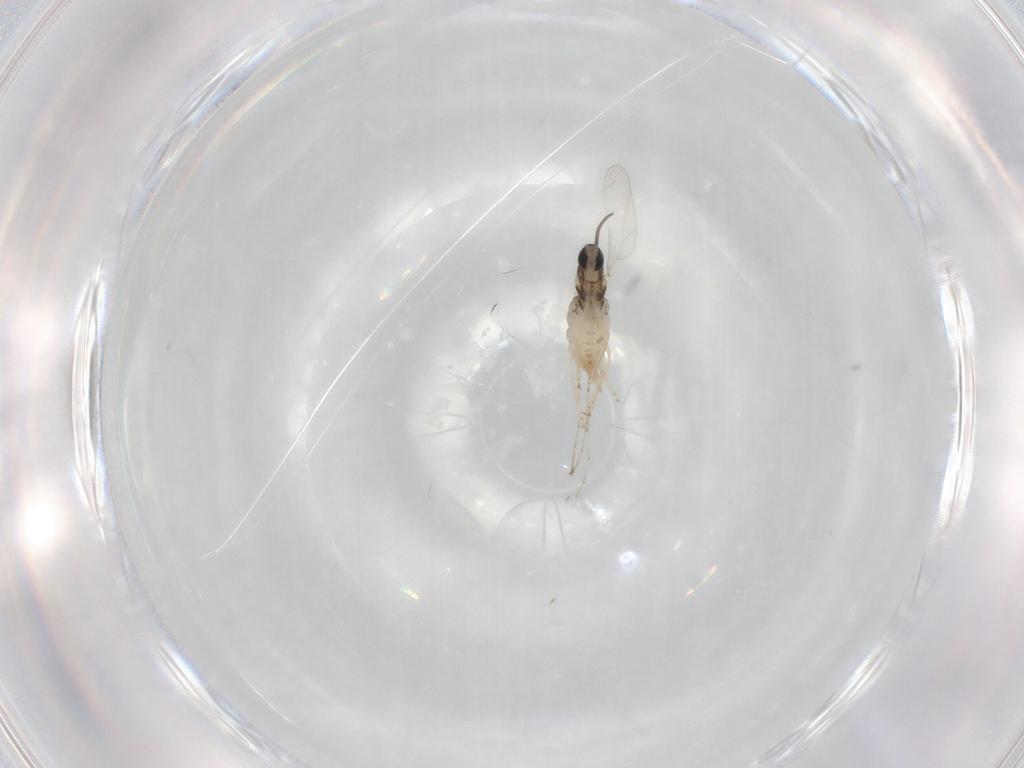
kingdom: Animalia
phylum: Arthropoda
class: Insecta
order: Diptera
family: Cecidomyiidae
